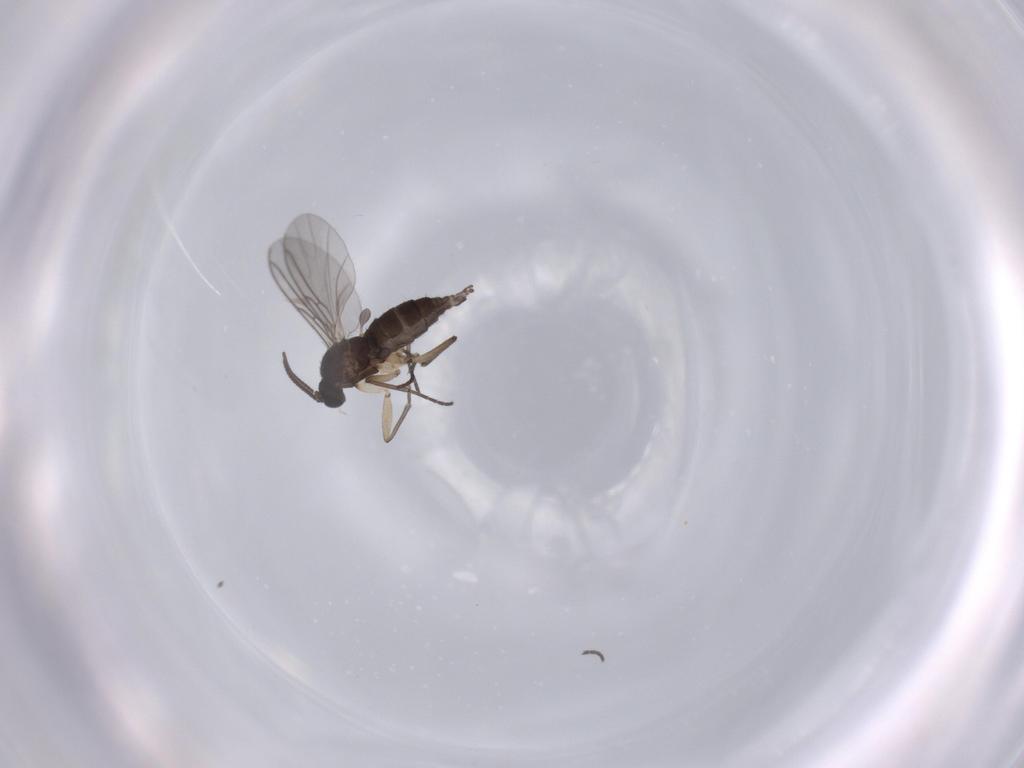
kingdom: Animalia
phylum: Arthropoda
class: Insecta
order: Diptera
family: Sciaridae
